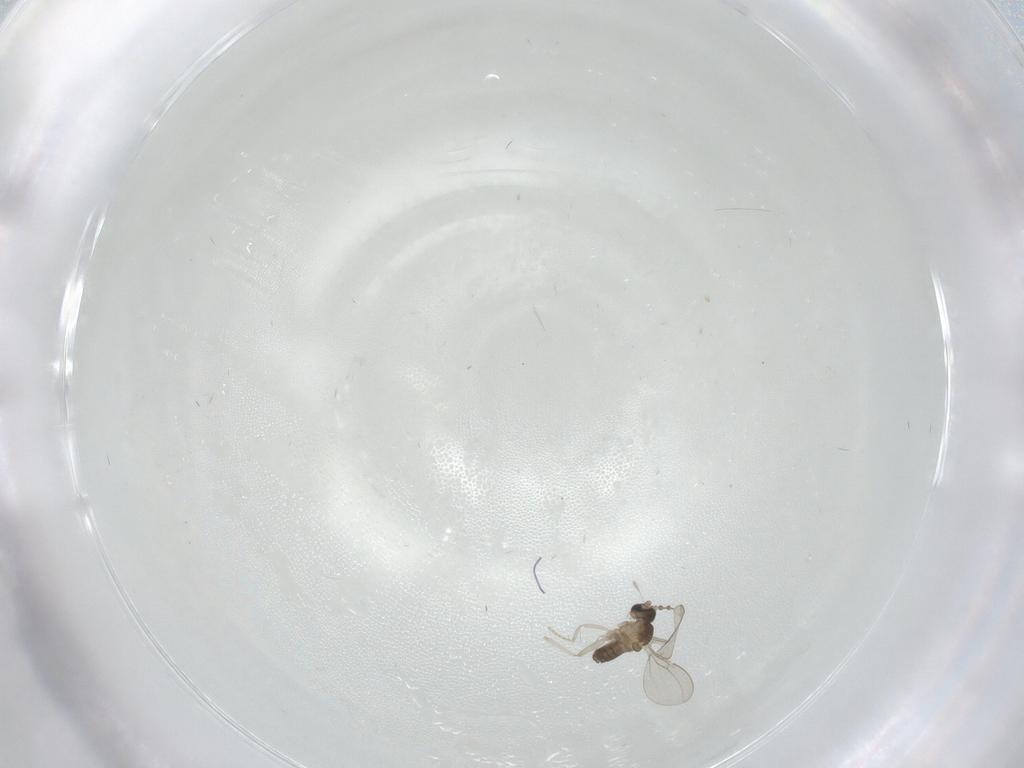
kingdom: Animalia
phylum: Arthropoda
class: Insecta
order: Diptera
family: Cecidomyiidae
